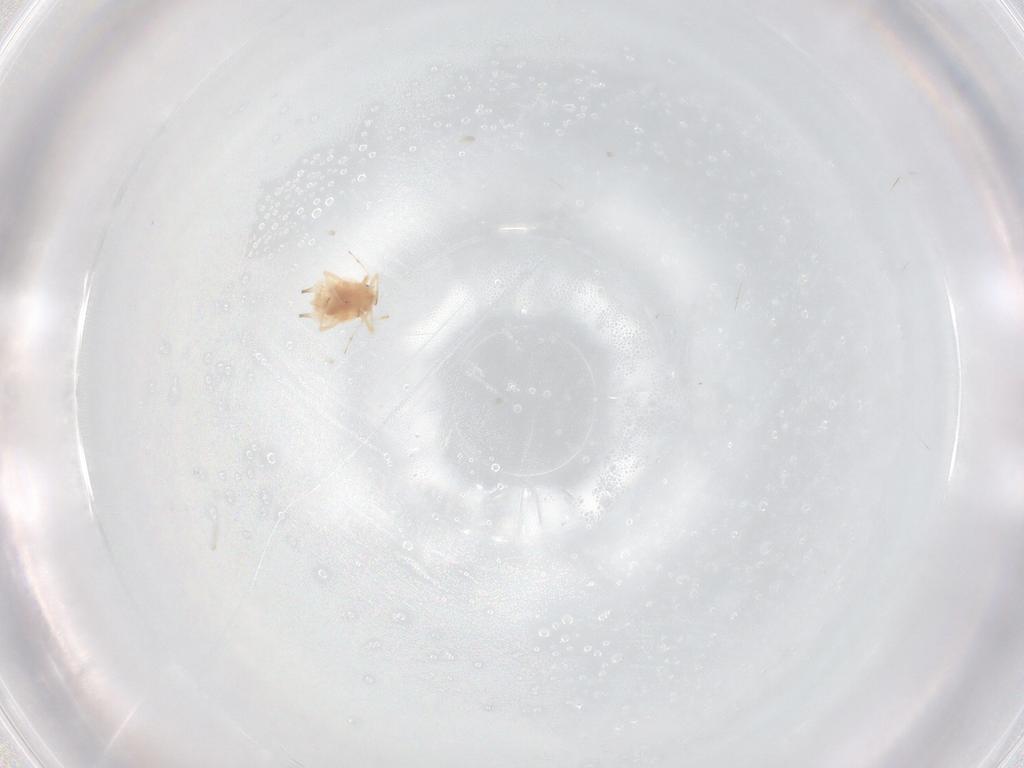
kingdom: Animalia
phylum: Arthropoda
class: Insecta
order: Hemiptera
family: Aphididae
